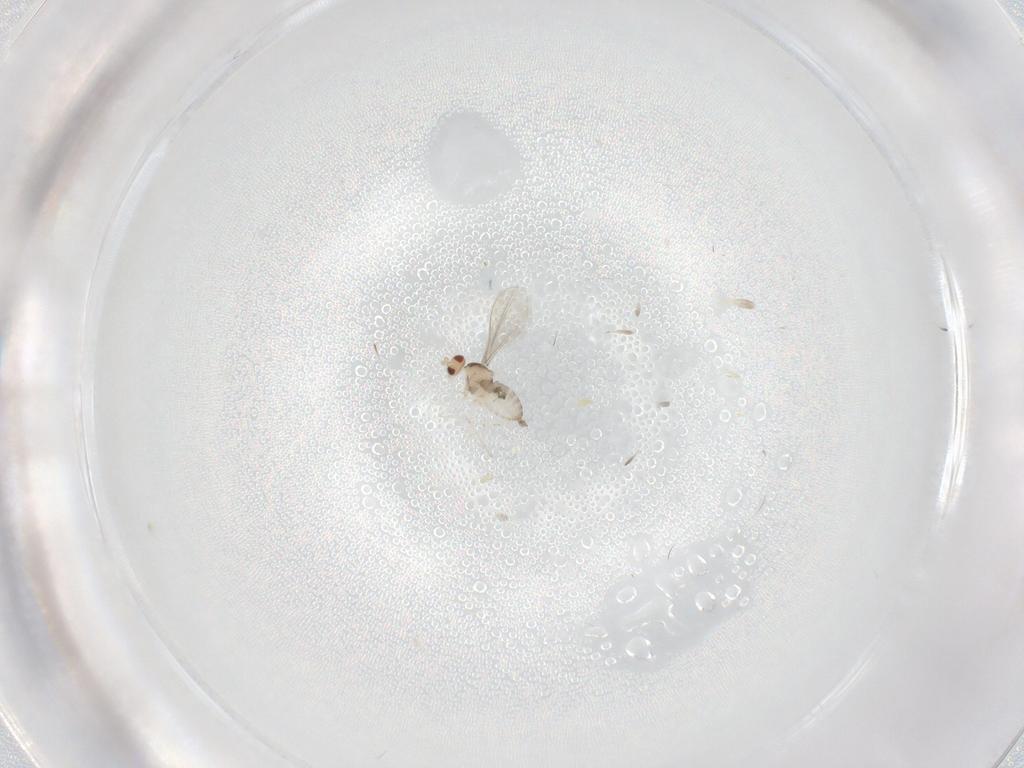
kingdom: Animalia
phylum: Arthropoda
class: Insecta
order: Diptera
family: Cecidomyiidae
